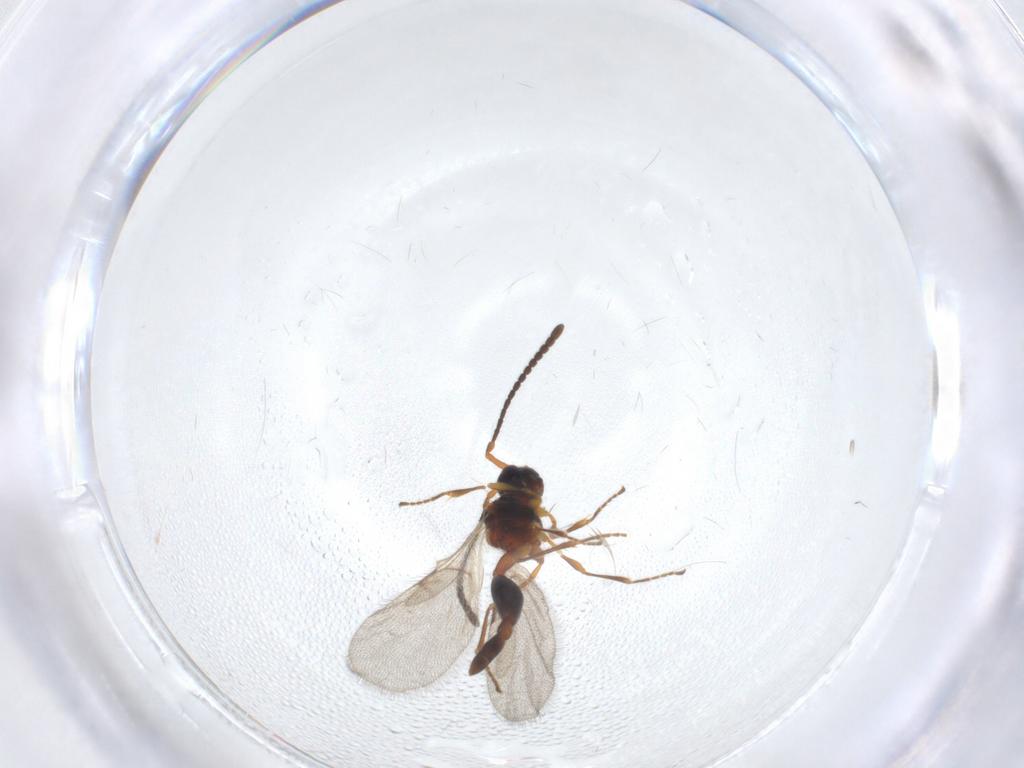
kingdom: Animalia
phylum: Arthropoda
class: Insecta
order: Hymenoptera
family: Diapriidae
